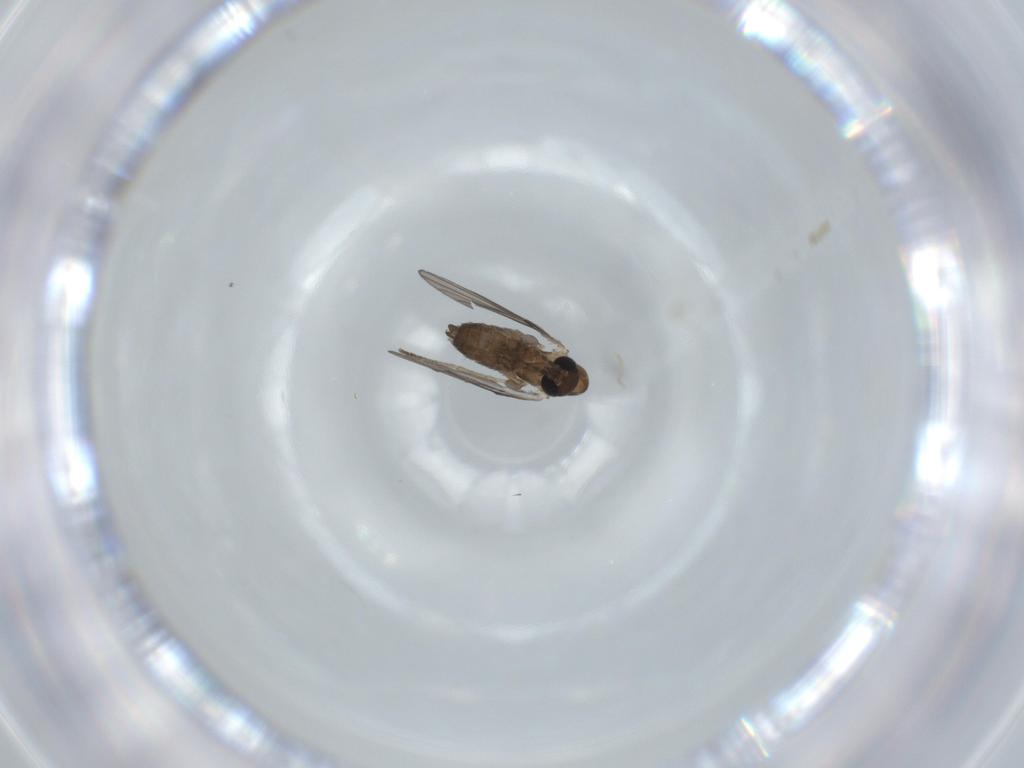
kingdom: Animalia
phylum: Arthropoda
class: Insecta
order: Diptera
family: Psychodidae
